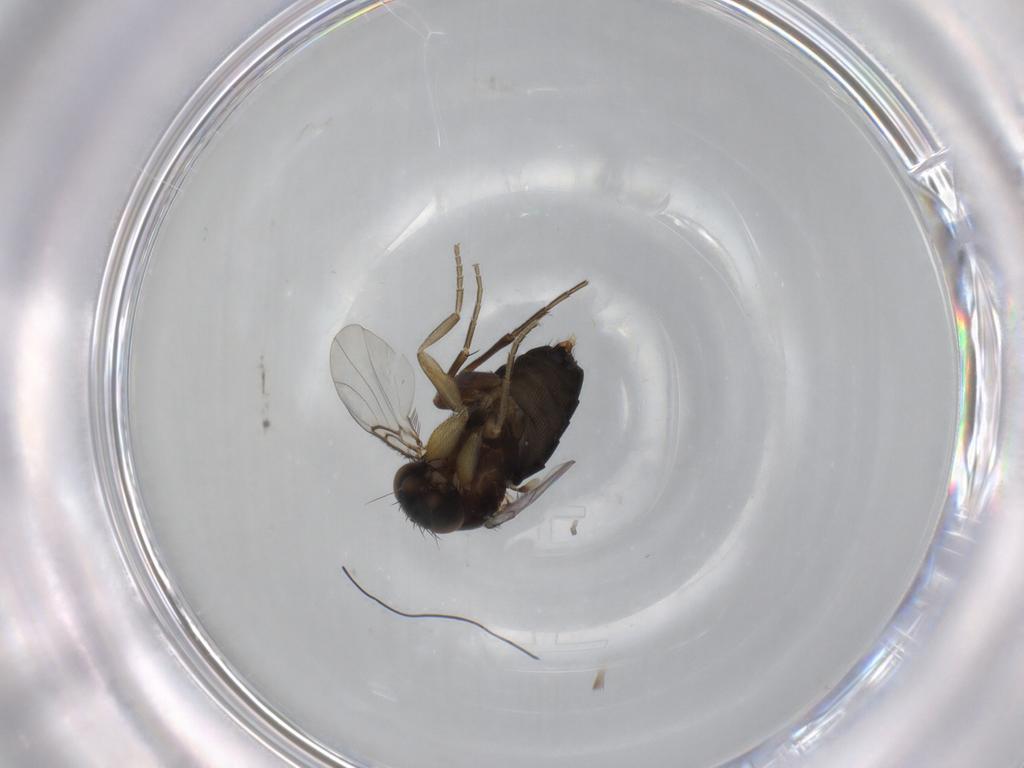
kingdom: Animalia
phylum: Arthropoda
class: Insecta
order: Diptera
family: Phoridae
